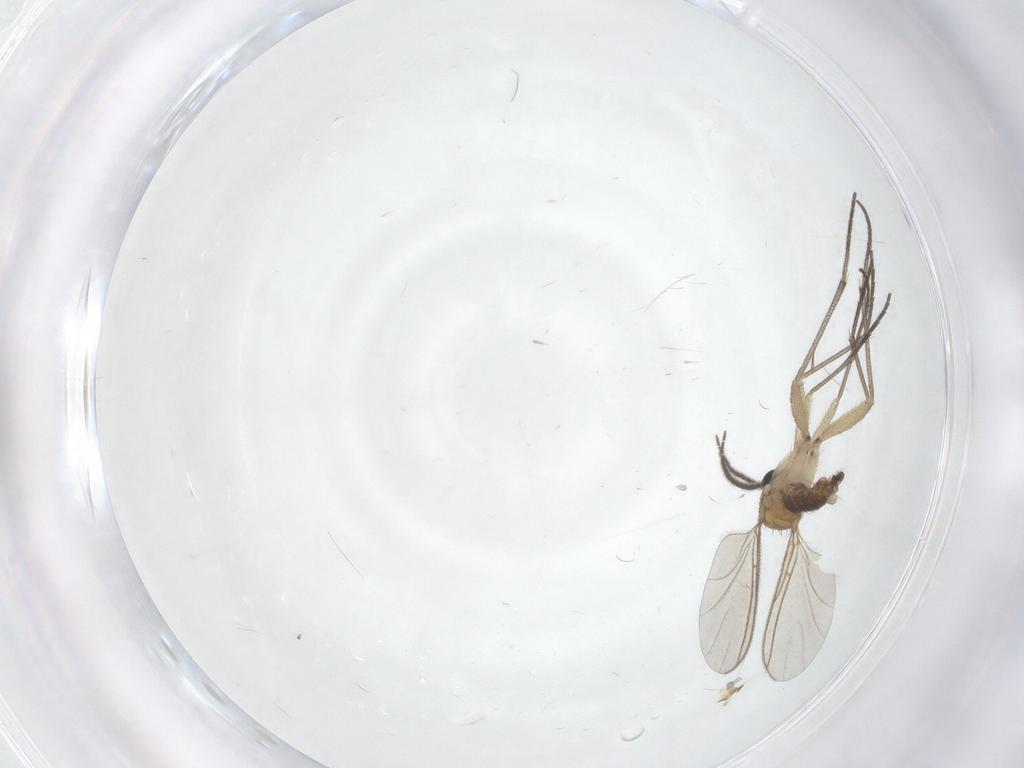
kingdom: Animalia
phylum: Arthropoda
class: Insecta
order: Diptera
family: Sciaridae
